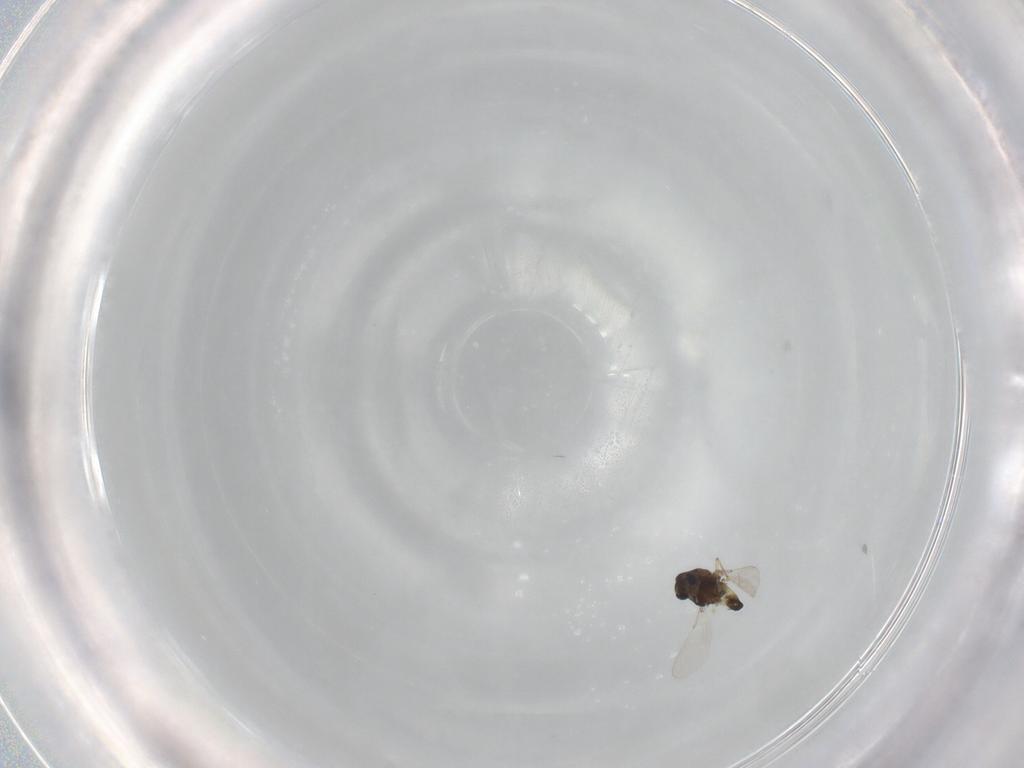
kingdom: Animalia
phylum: Arthropoda
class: Insecta
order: Diptera
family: Chironomidae
